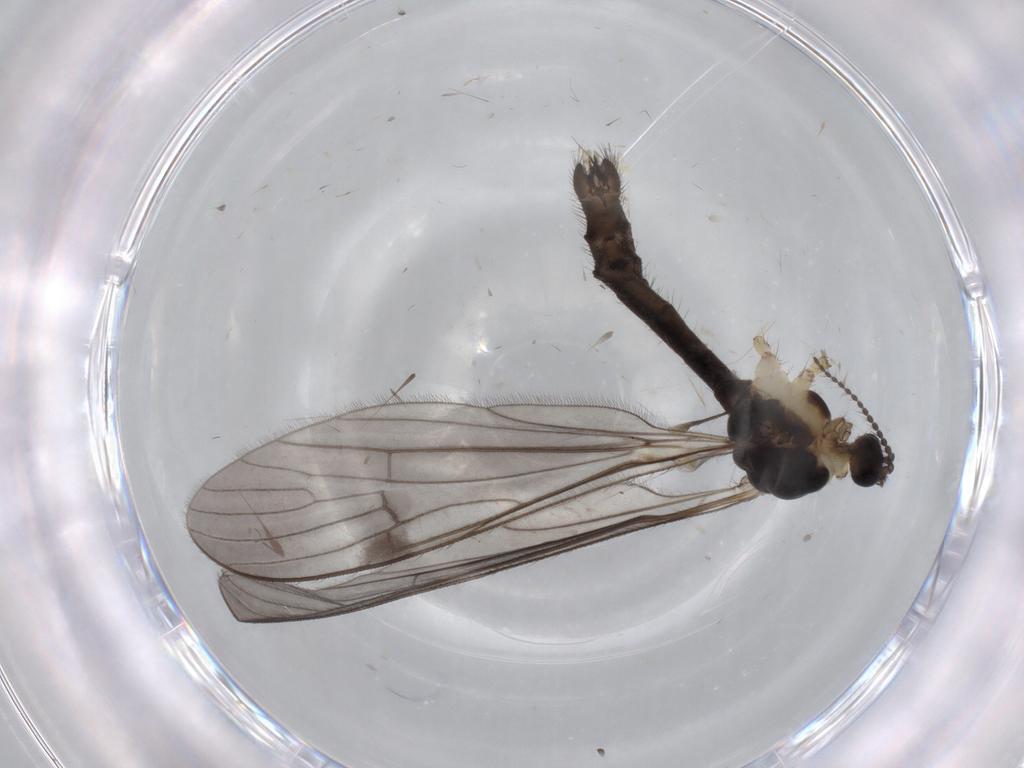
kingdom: Animalia
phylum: Arthropoda
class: Insecta
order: Diptera
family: Limoniidae
